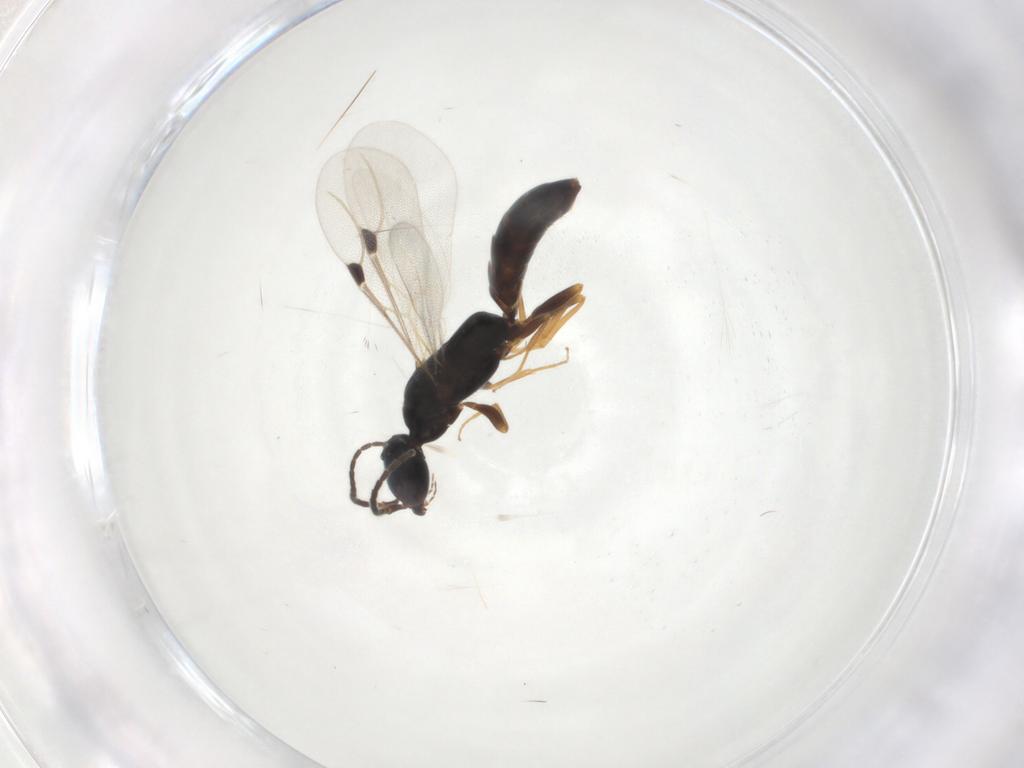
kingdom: Animalia
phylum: Arthropoda
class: Insecta
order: Hymenoptera
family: Bethylidae
